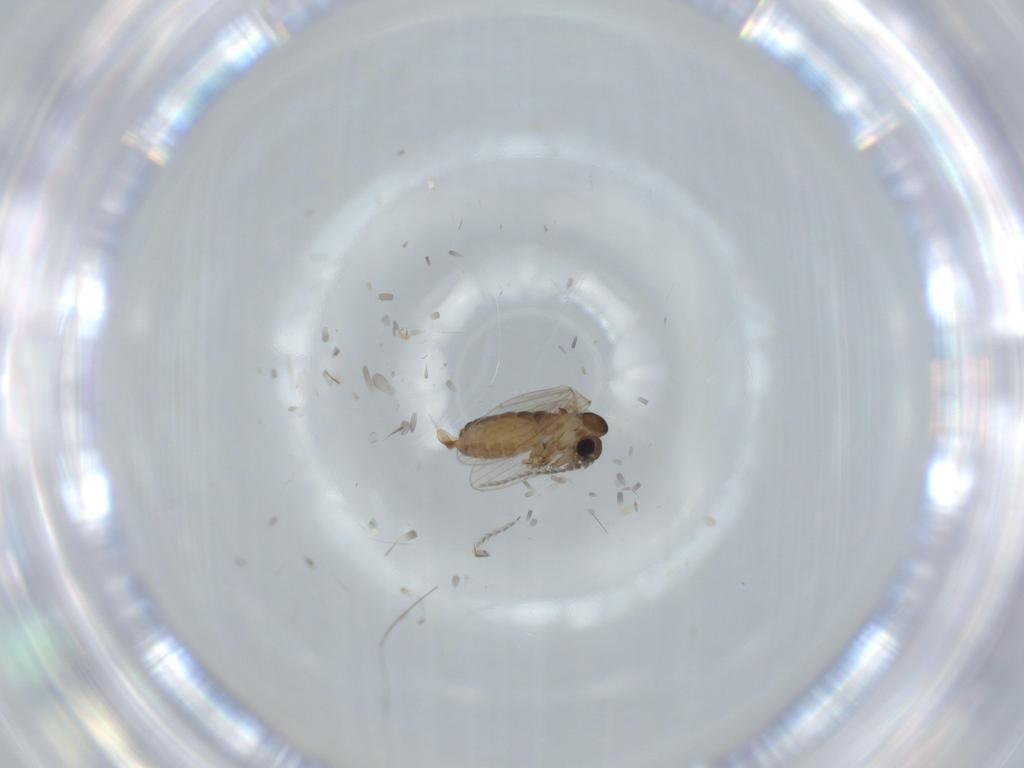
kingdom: Animalia
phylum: Arthropoda
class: Insecta
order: Diptera
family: Psychodidae
